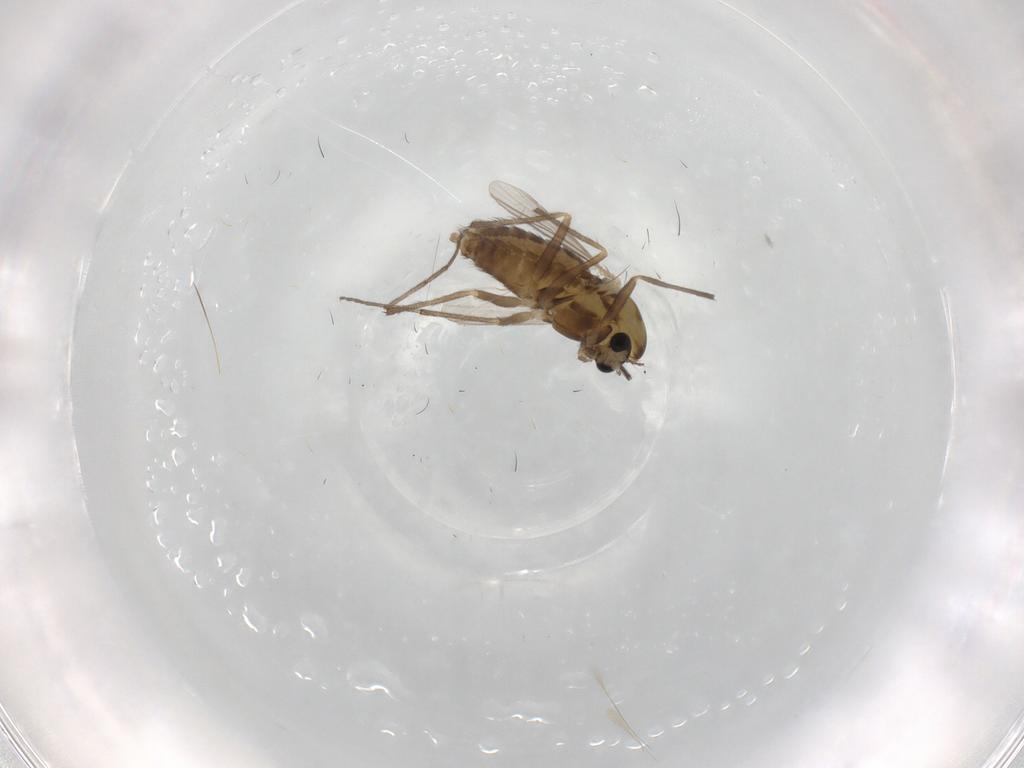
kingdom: Animalia
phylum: Arthropoda
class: Insecta
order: Diptera
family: Chironomidae
